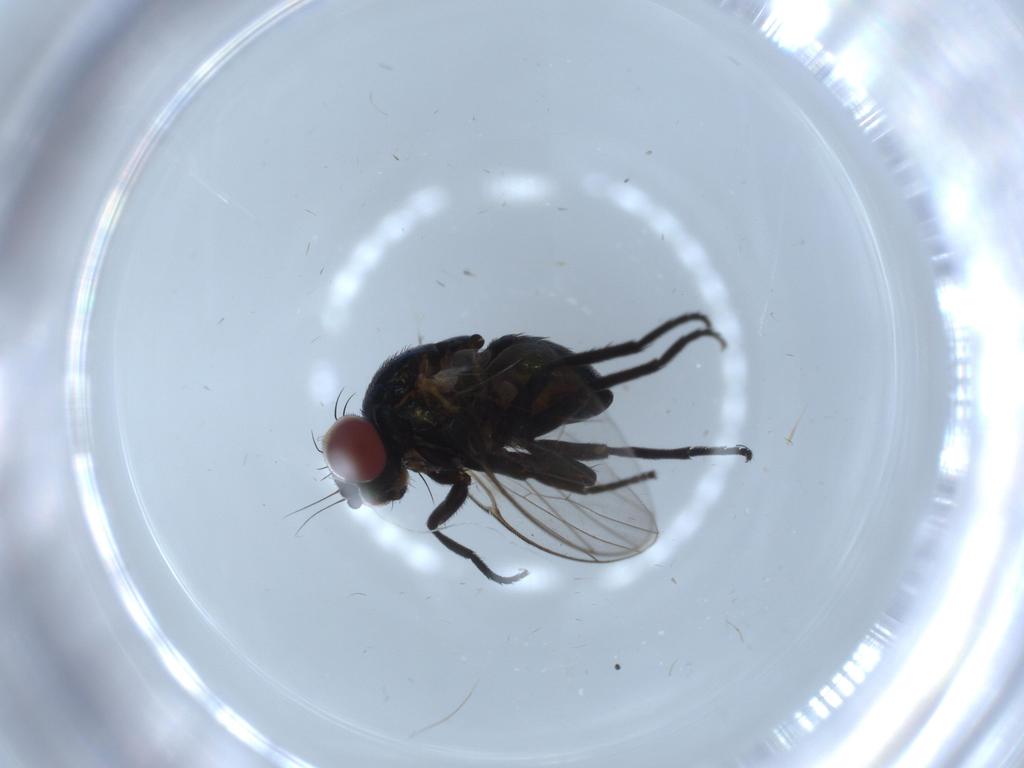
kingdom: Animalia
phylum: Arthropoda
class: Insecta
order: Diptera
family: Agromyzidae
